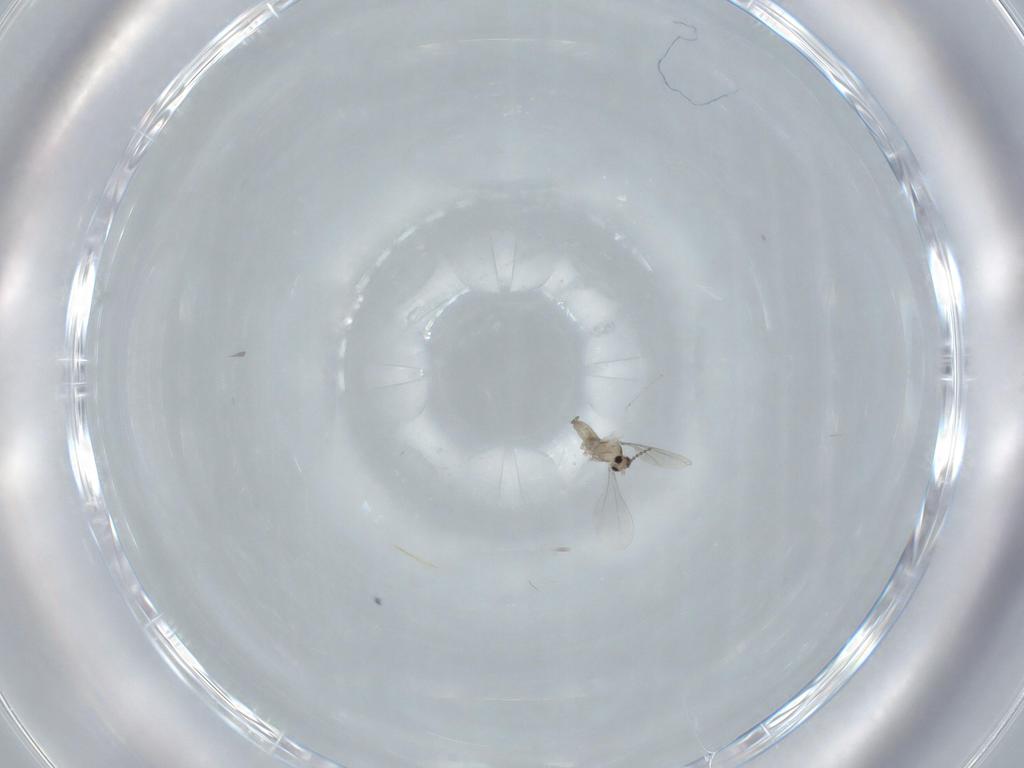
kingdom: Animalia
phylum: Arthropoda
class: Insecta
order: Diptera
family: Cecidomyiidae
